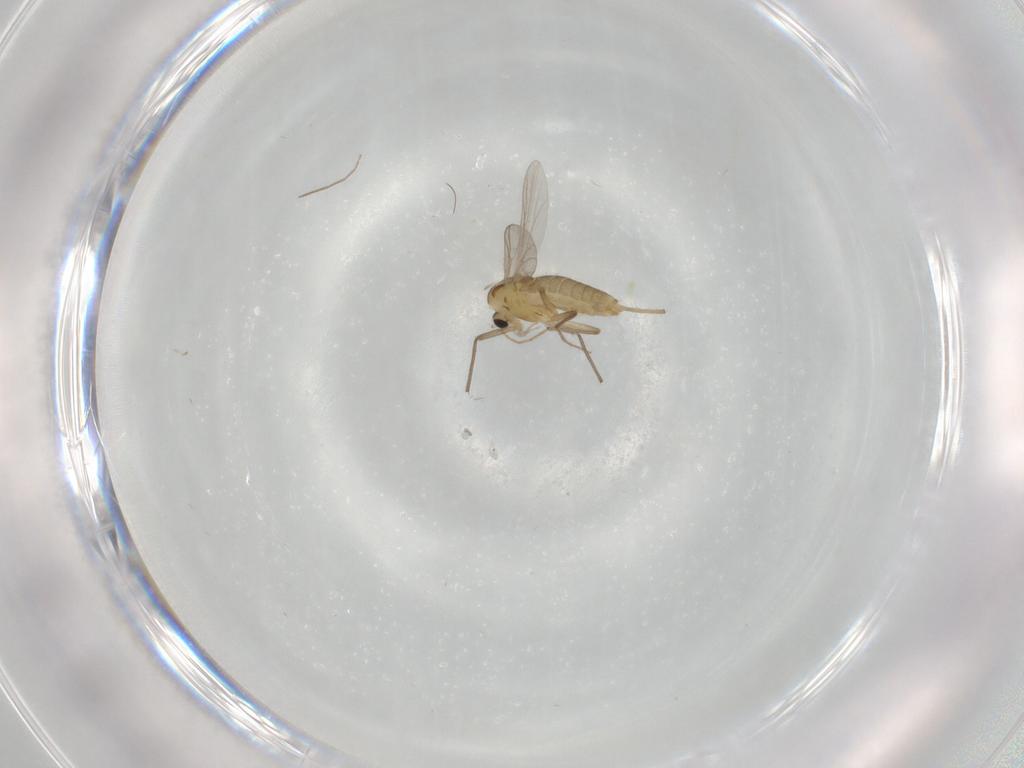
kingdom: Animalia
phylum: Arthropoda
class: Insecta
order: Diptera
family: Chironomidae
